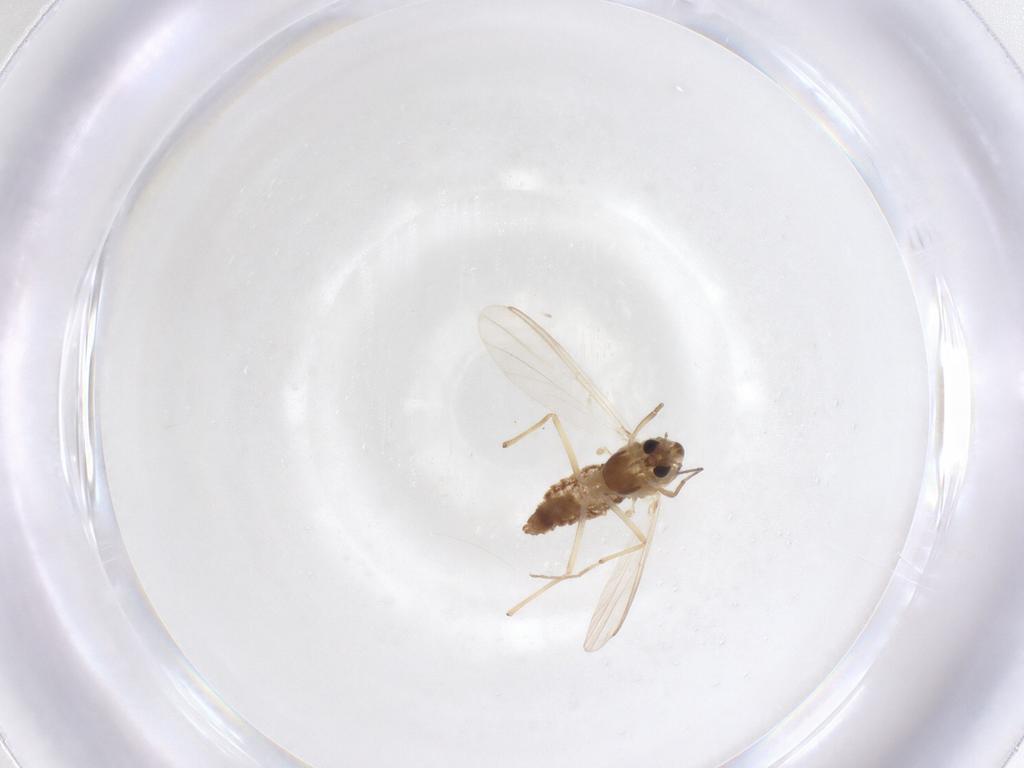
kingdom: Animalia
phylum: Arthropoda
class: Insecta
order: Diptera
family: Chironomidae
